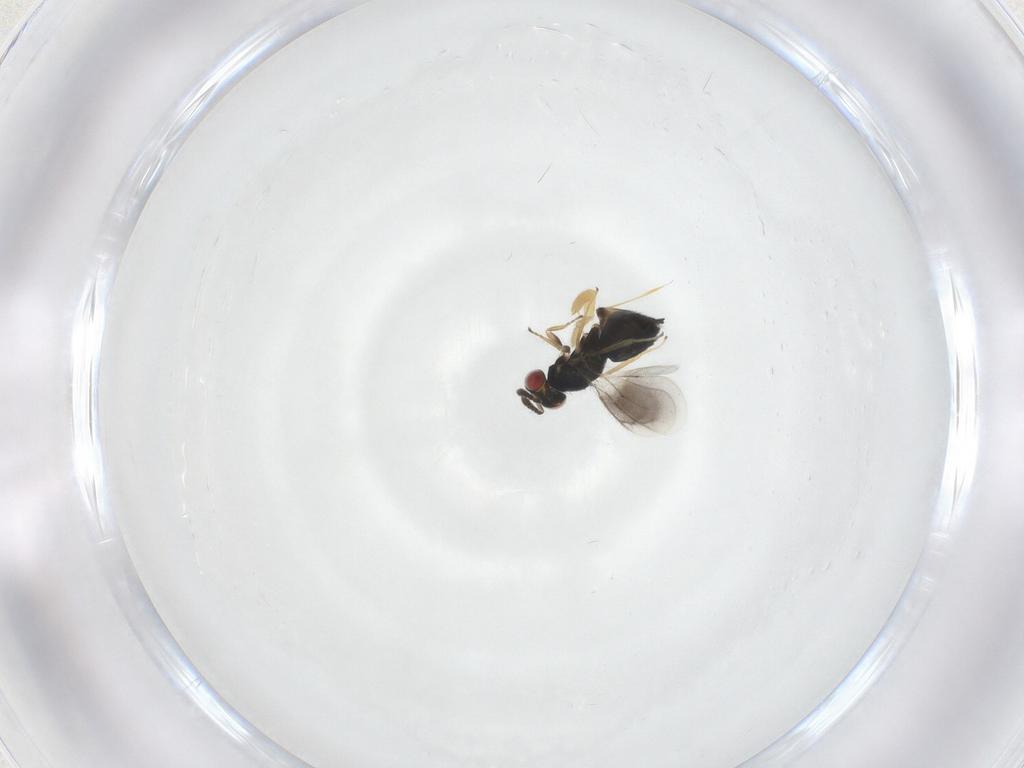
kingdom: Animalia
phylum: Arthropoda
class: Insecta
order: Hymenoptera
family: Eulophidae
